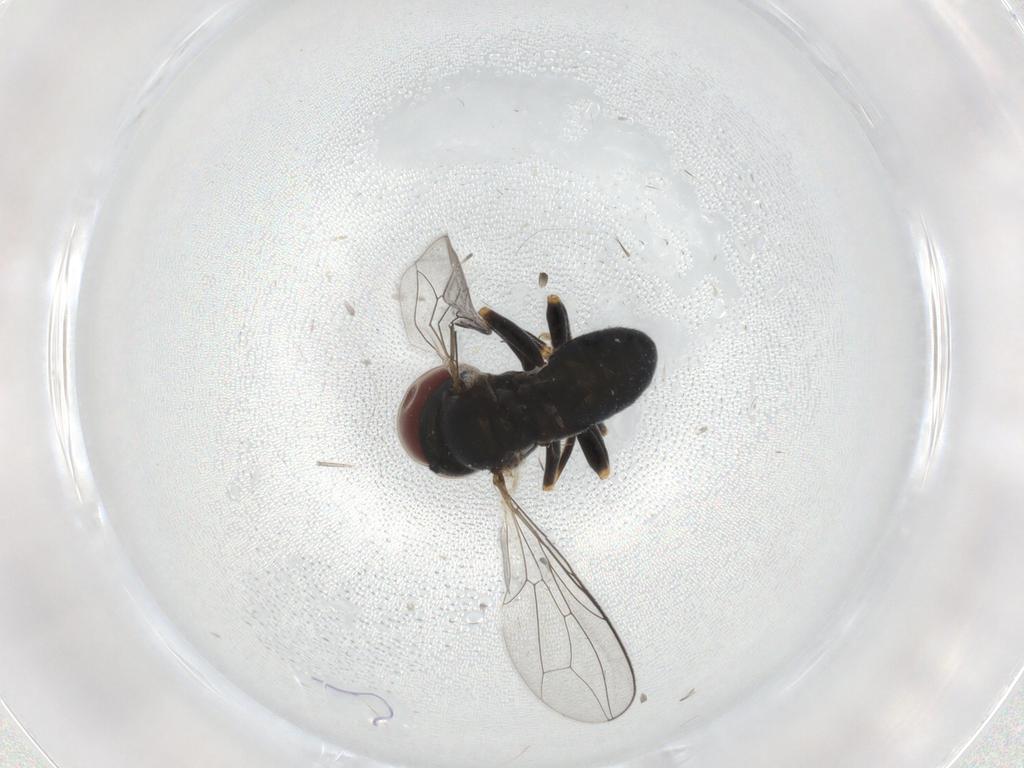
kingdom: Animalia
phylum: Arthropoda
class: Insecta
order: Diptera
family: Pipunculidae
